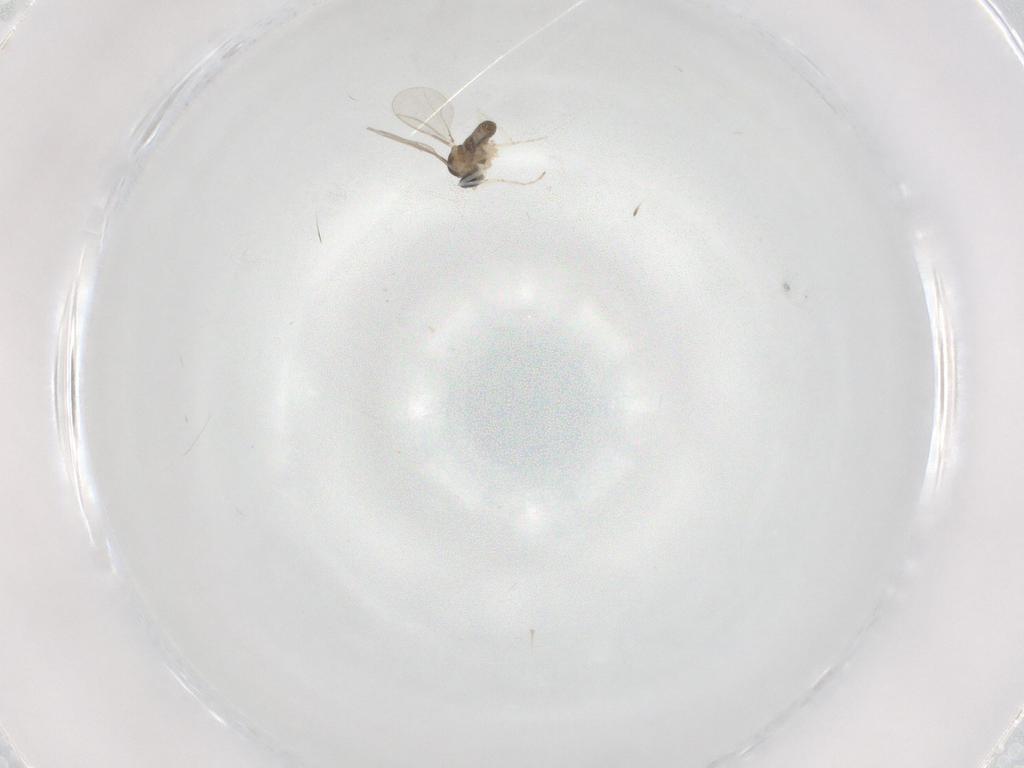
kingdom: Animalia
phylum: Arthropoda
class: Insecta
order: Diptera
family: Cecidomyiidae
